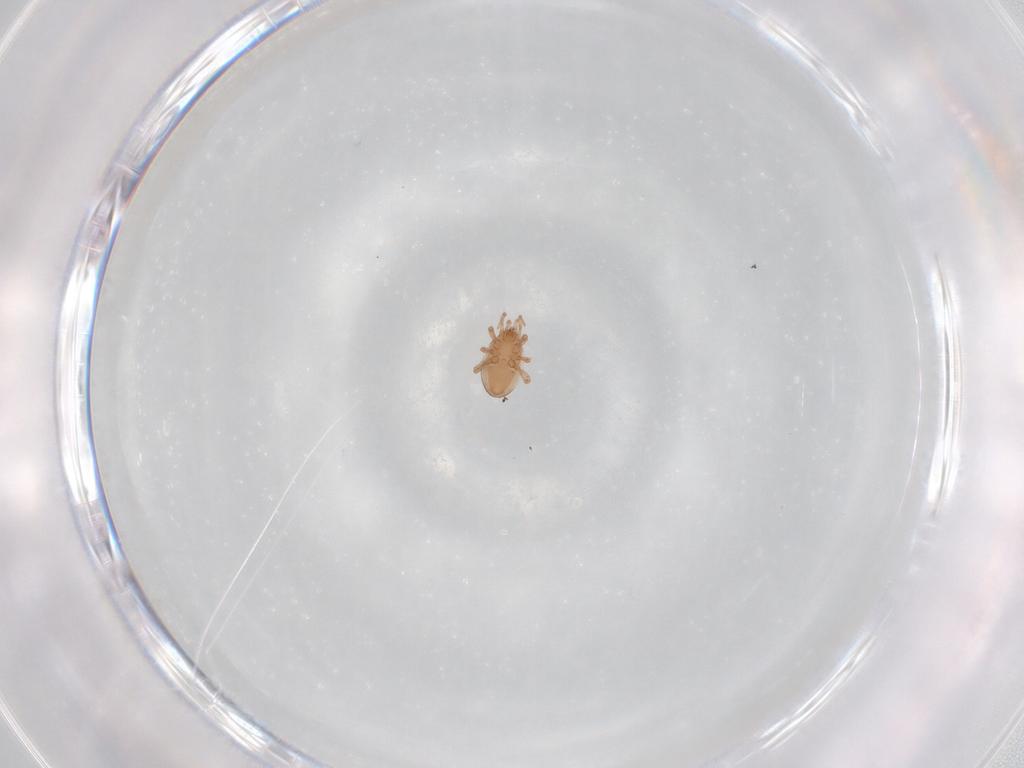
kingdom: Animalia
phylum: Arthropoda
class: Arachnida
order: Mesostigmata
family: Ologamasidae
